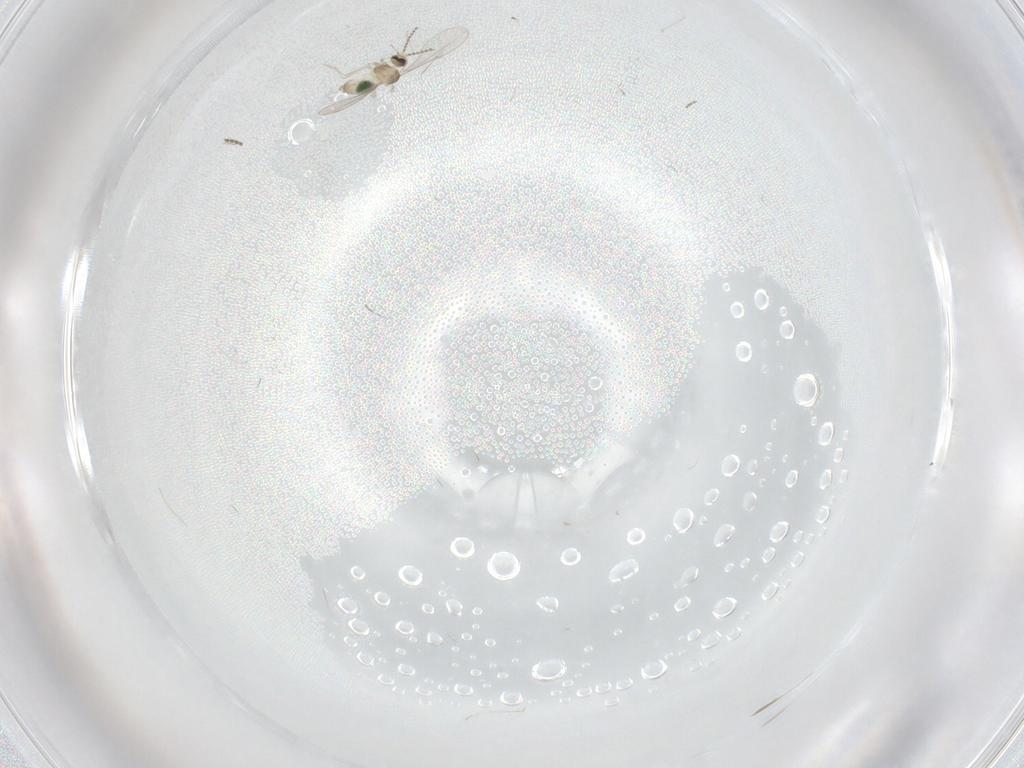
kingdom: Animalia
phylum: Arthropoda
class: Insecta
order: Diptera
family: Cecidomyiidae
